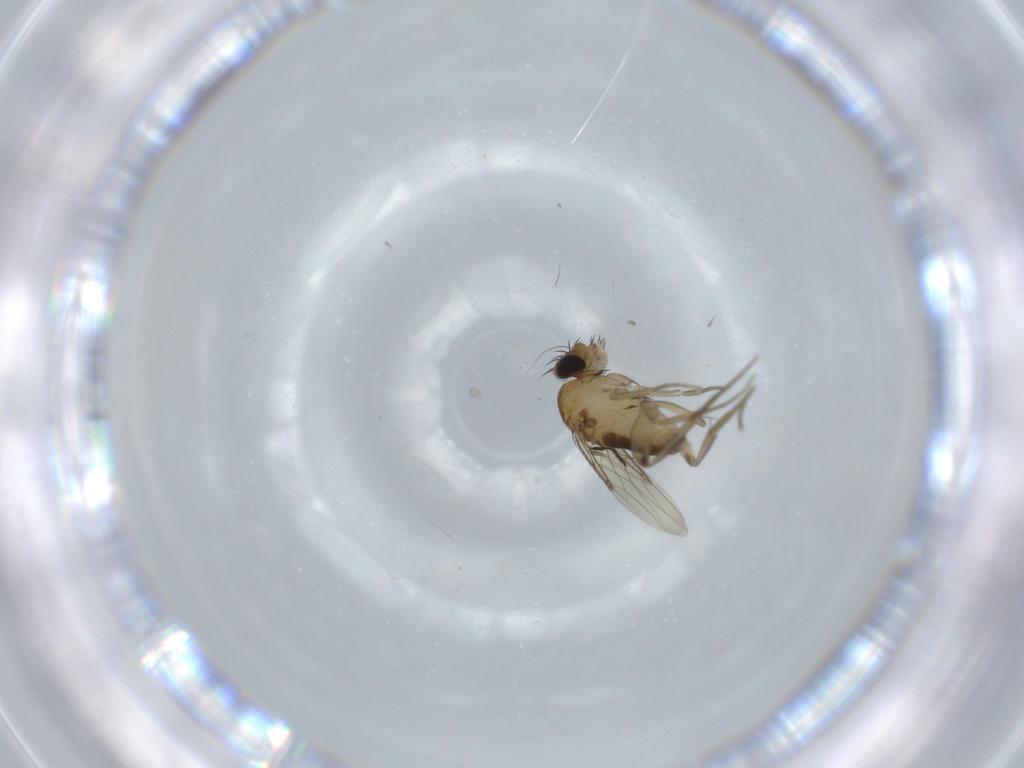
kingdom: Animalia
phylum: Arthropoda
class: Insecta
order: Diptera
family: Phoridae
